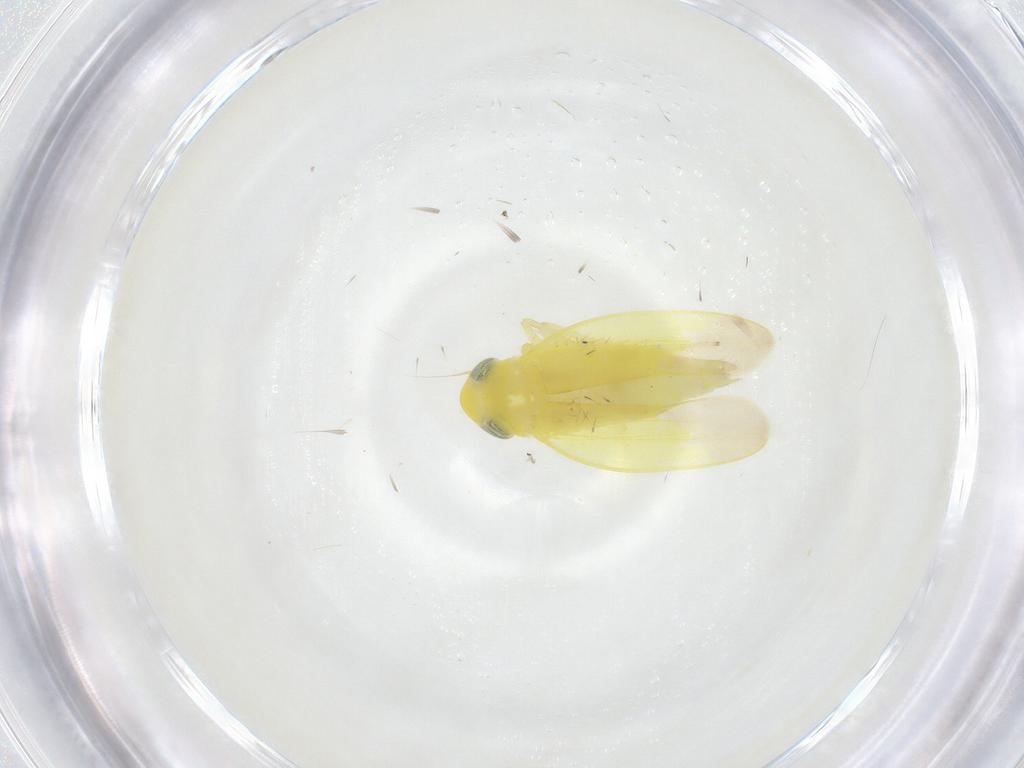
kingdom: Animalia
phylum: Arthropoda
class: Insecta
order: Hemiptera
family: Cicadellidae
